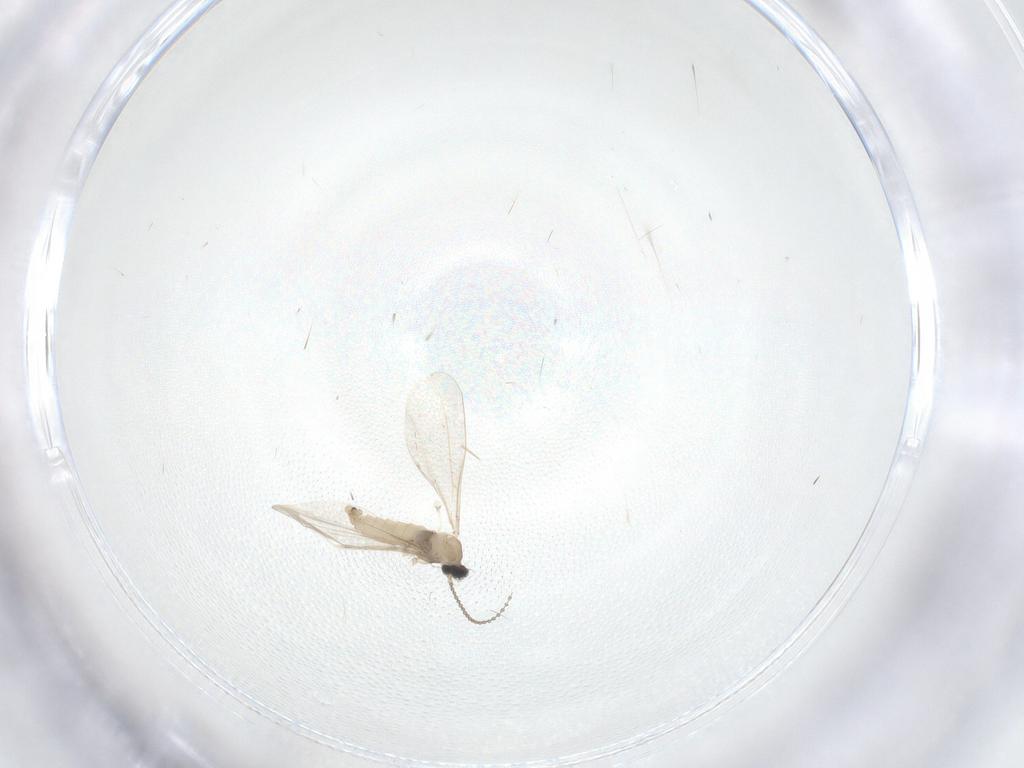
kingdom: Animalia
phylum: Arthropoda
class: Insecta
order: Diptera
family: Cecidomyiidae
